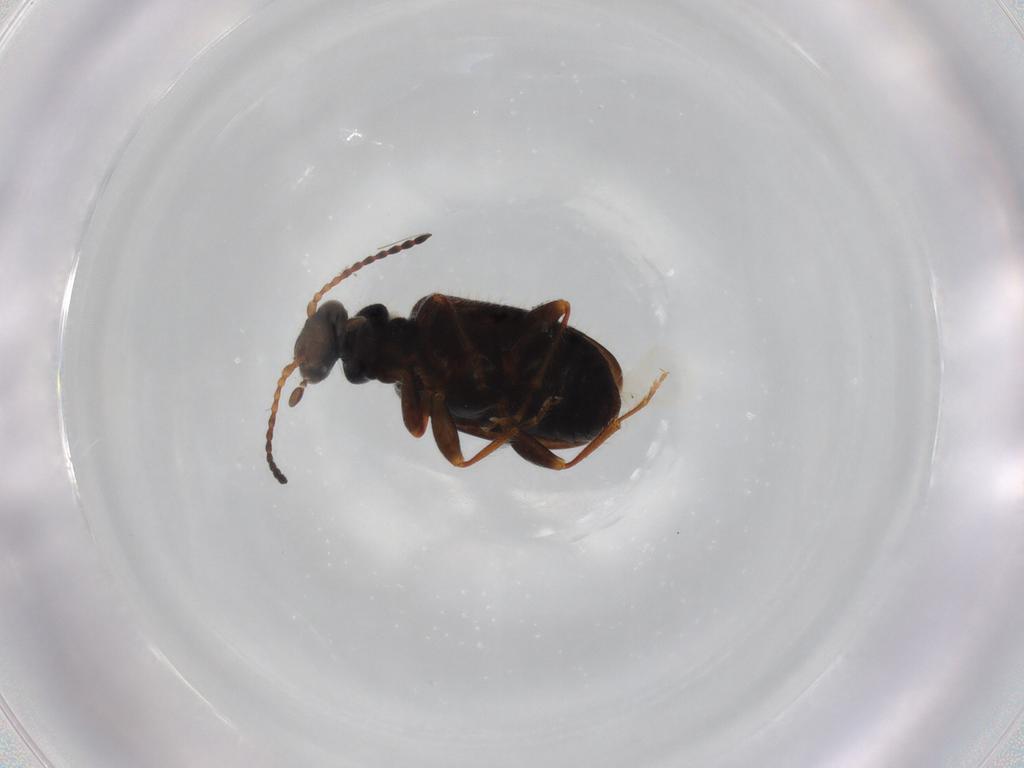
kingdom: Animalia
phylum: Arthropoda
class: Insecta
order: Coleoptera
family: Anthicidae
